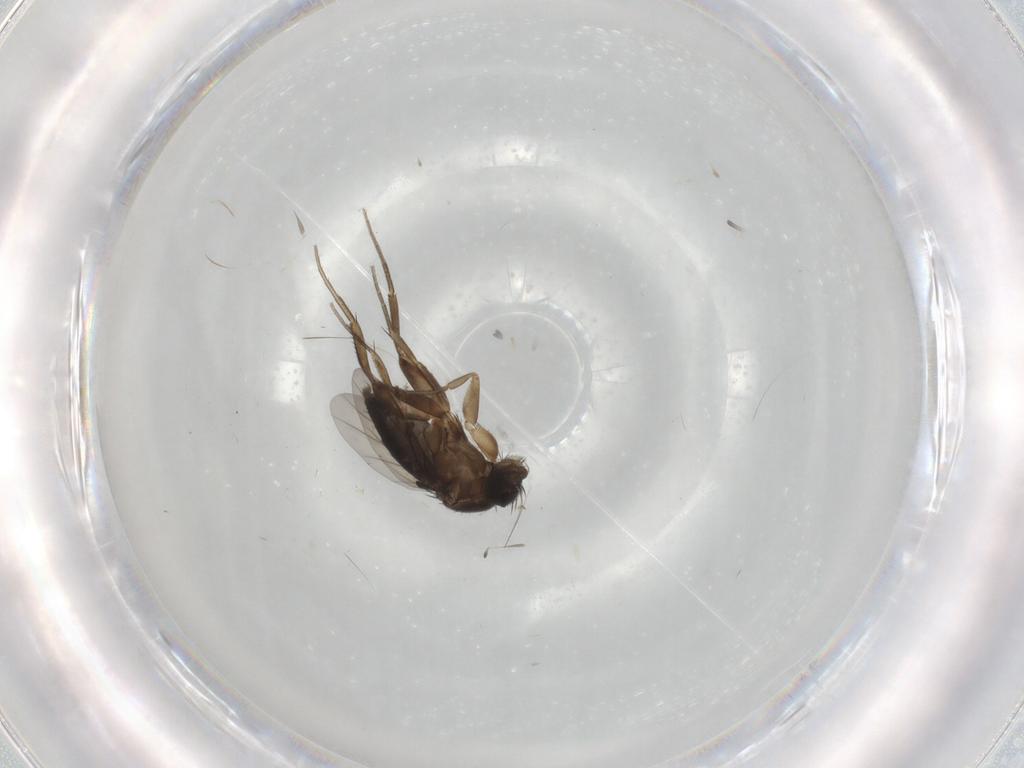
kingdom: Animalia
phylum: Arthropoda
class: Insecta
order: Diptera
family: Phoridae
